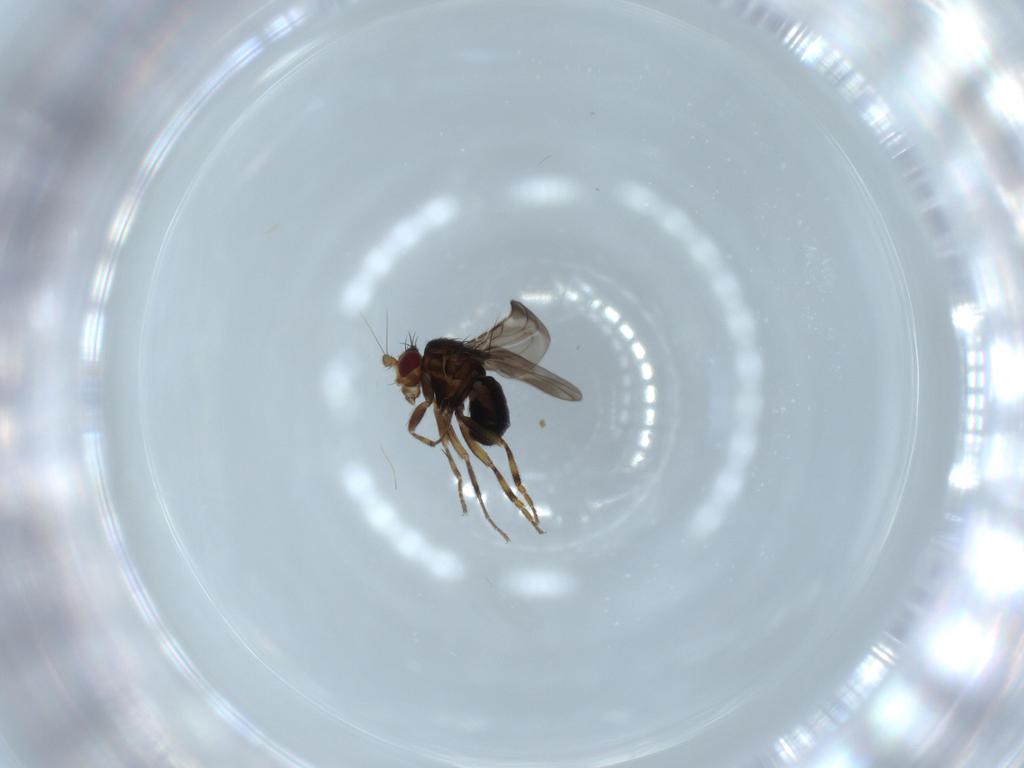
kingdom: Animalia
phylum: Arthropoda
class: Insecta
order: Diptera
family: Sphaeroceridae
